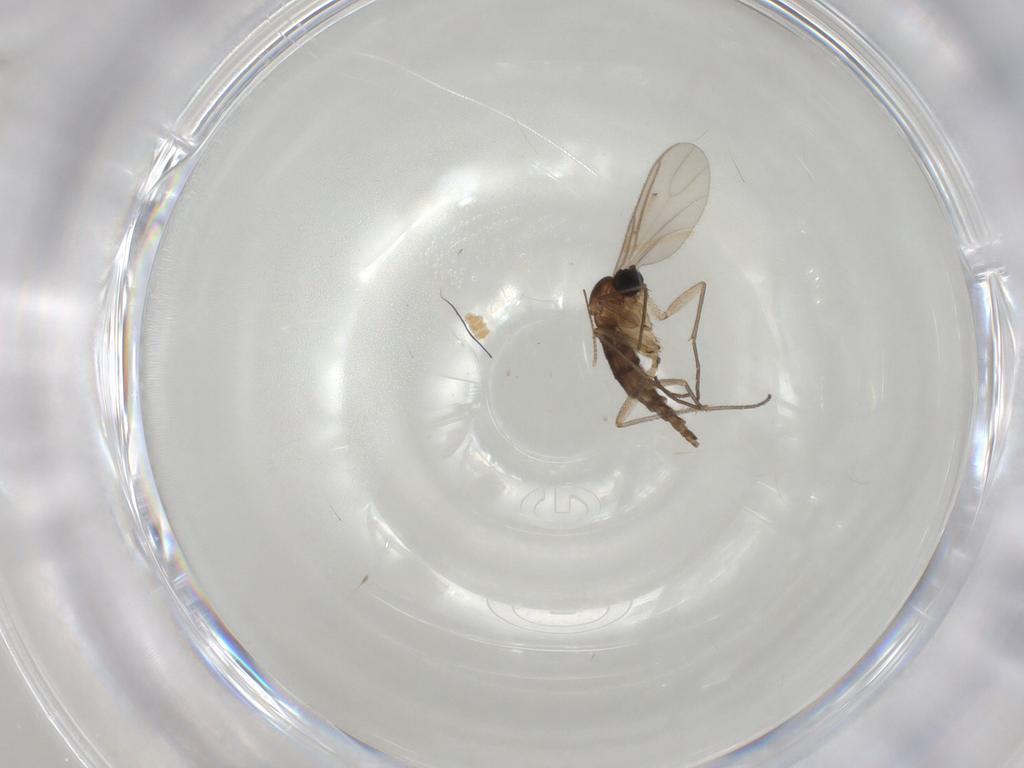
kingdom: Animalia
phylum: Arthropoda
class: Insecta
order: Diptera
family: Sciaridae
